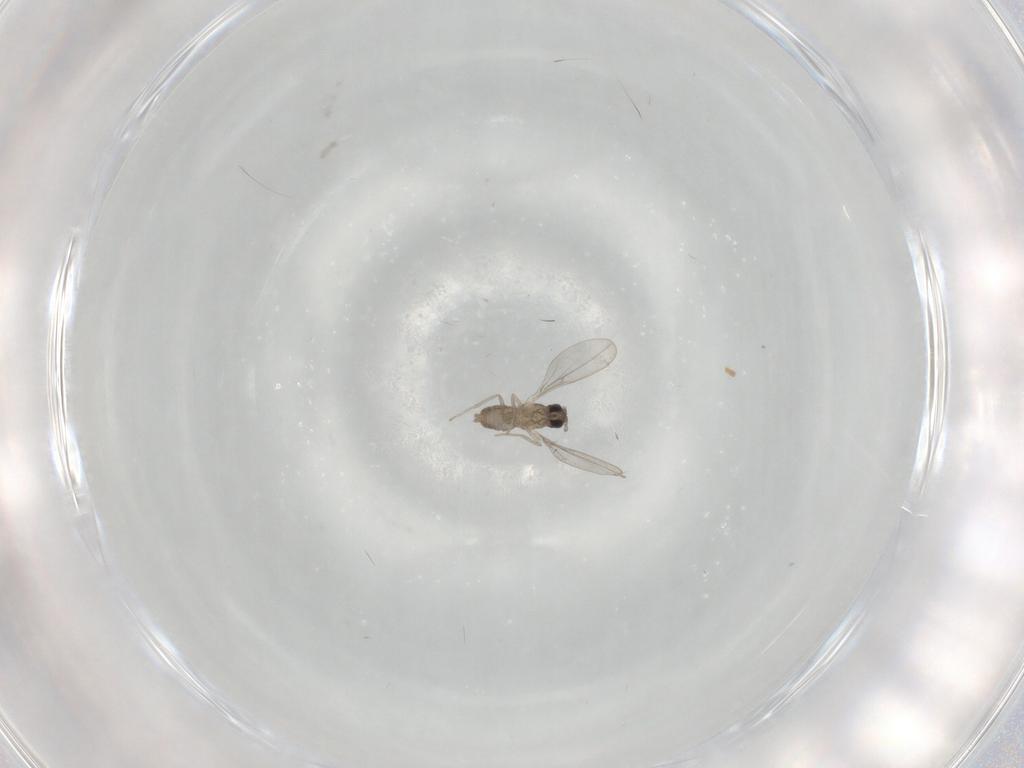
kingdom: Animalia
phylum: Arthropoda
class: Insecta
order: Diptera
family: Cecidomyiidae
